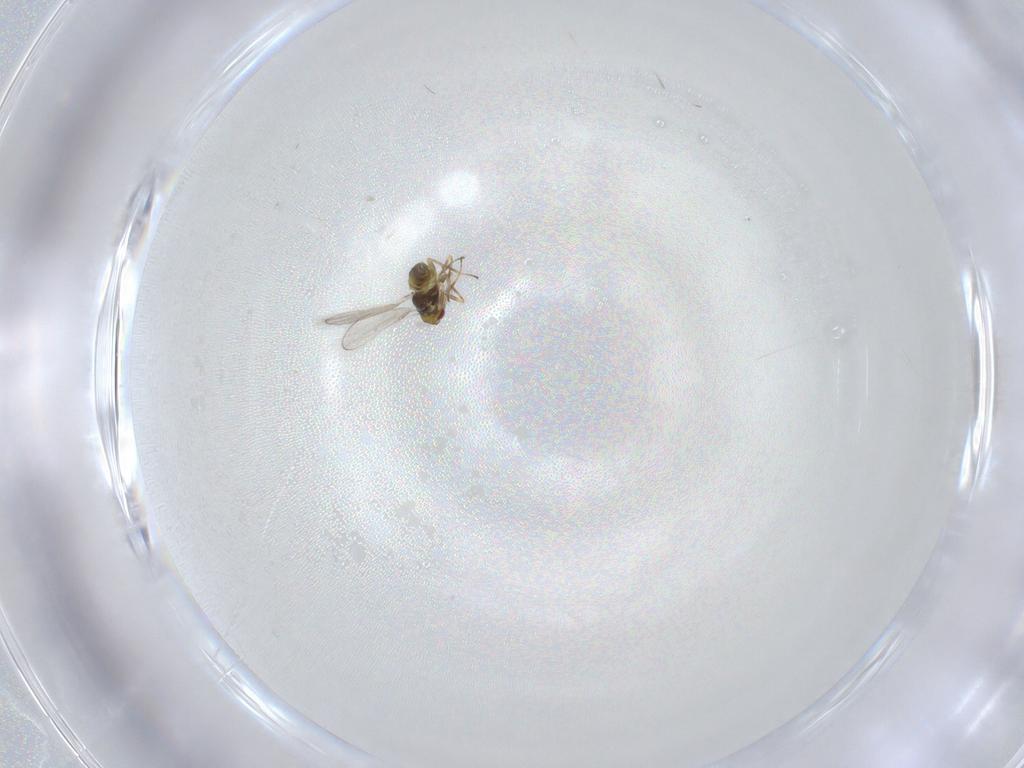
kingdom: Animalia
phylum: Arthropoda
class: Insecta
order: Hymenoptera
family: Eulophidae
